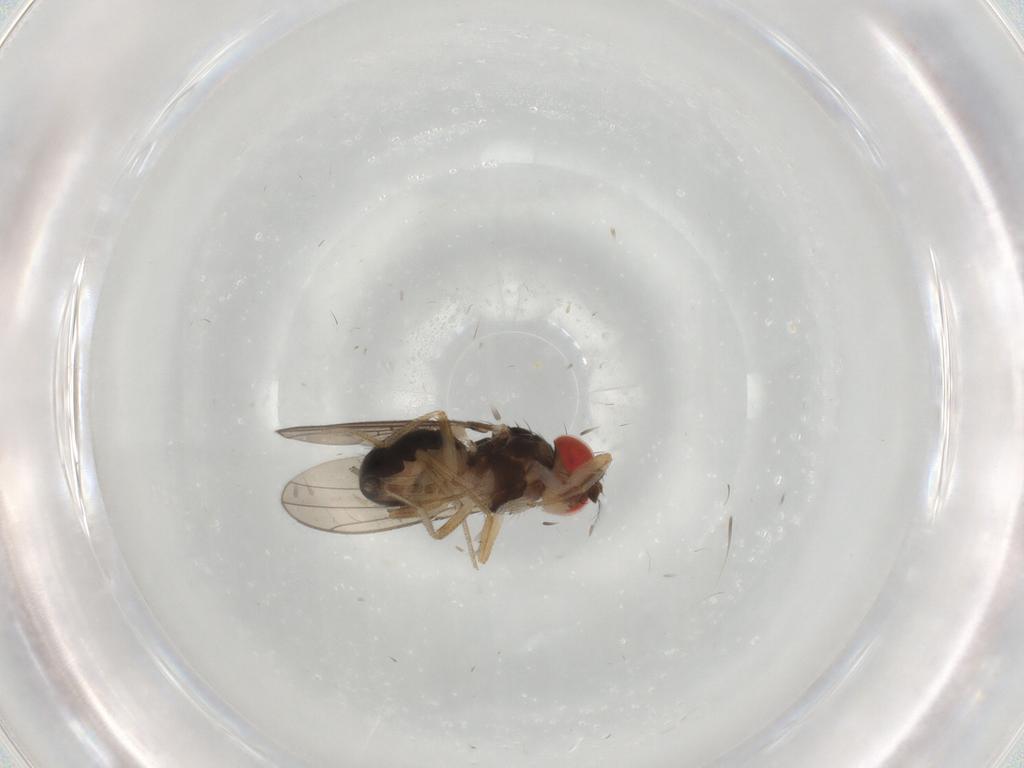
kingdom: Animalia
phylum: Arthropoda
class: Insecta
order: Diptera
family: Drosophilidae
